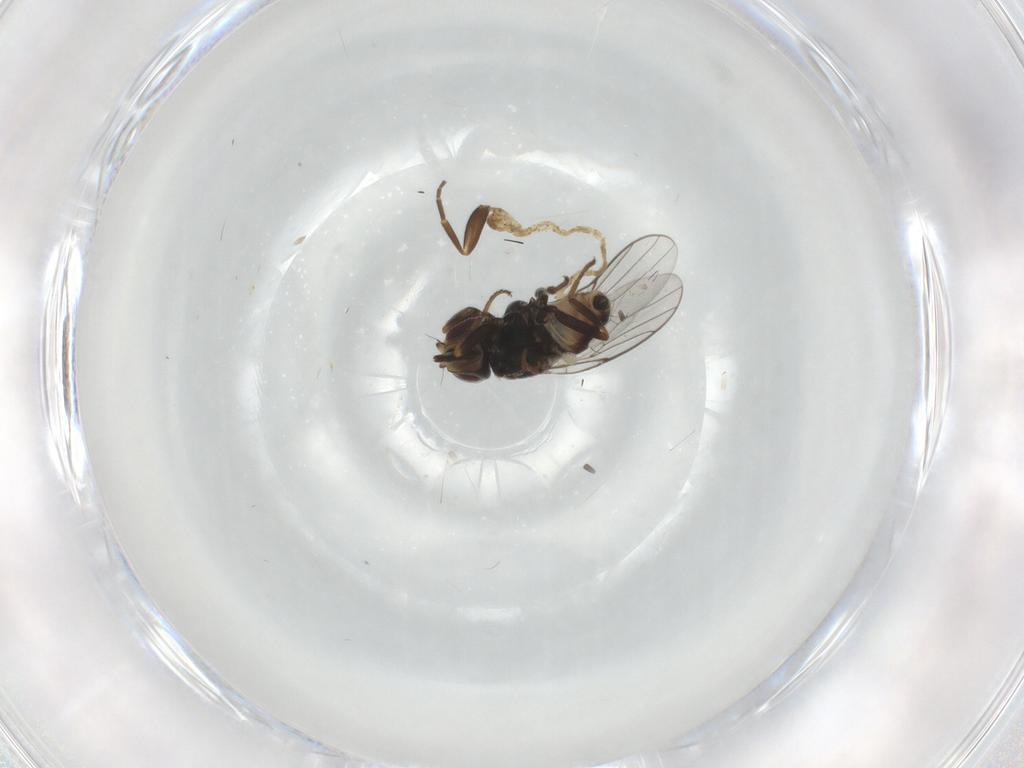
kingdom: Animalia
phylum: Arthropoda
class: Insecta
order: Diptera
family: Chloropidae
